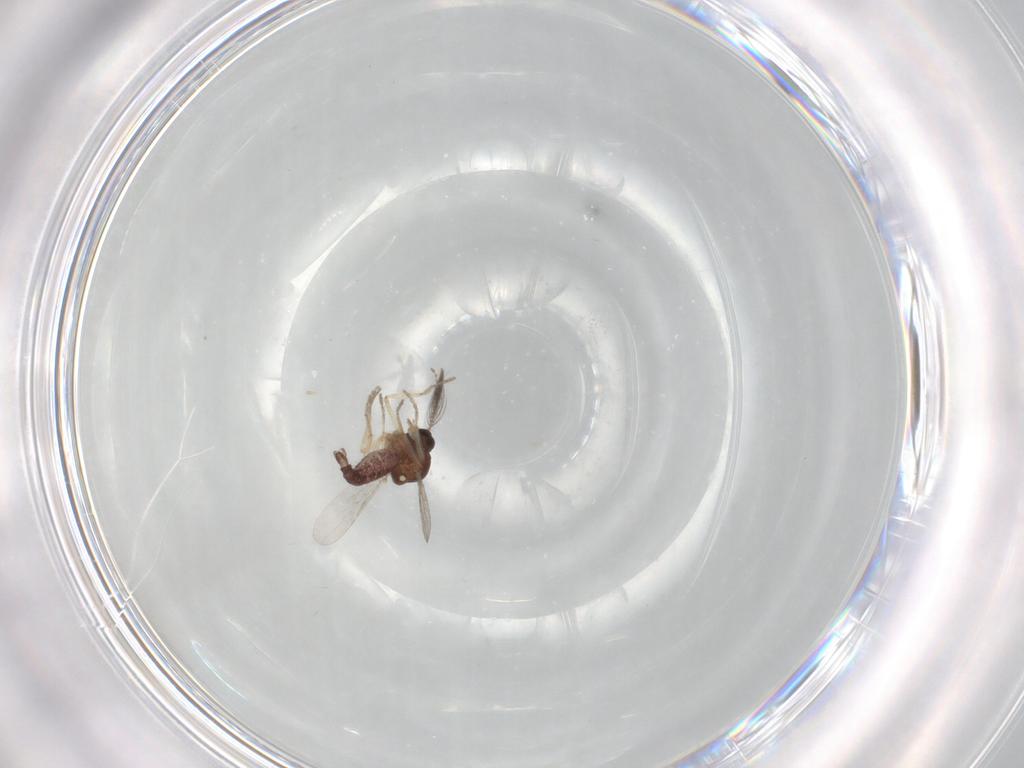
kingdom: Animalia
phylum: Arthropoda
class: Insecta
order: Diptera
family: Ceratopogonidae
